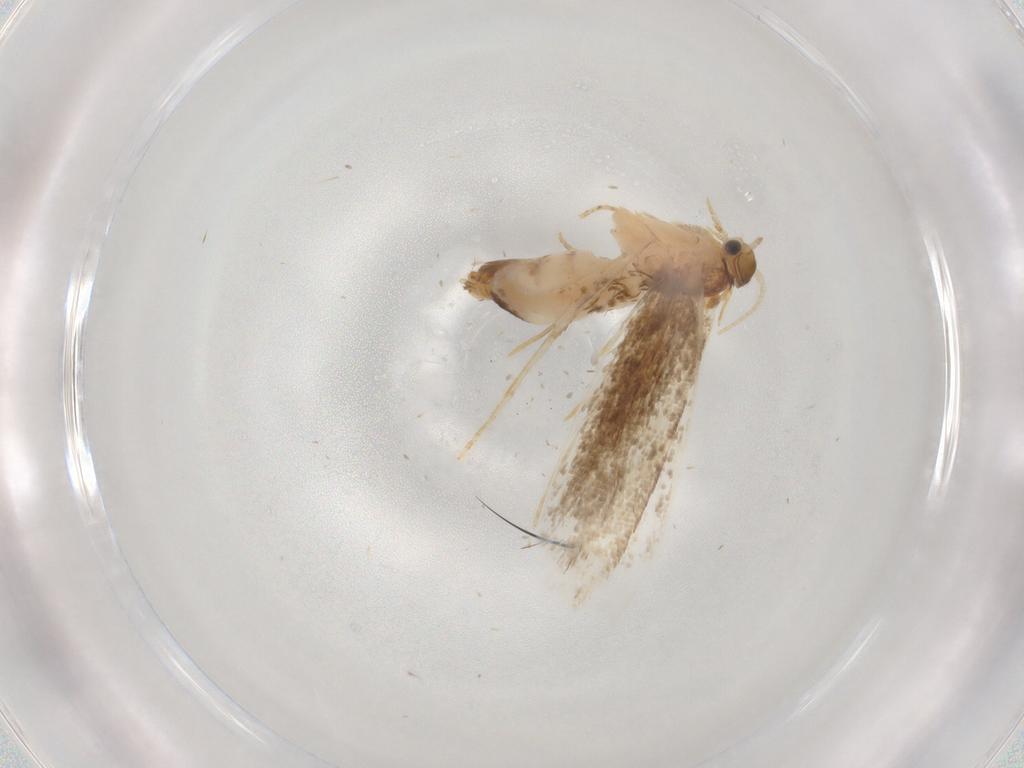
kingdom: Animalia
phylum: Arthropoda
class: Insecta
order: Lepidoptera
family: Dryadaulidae
